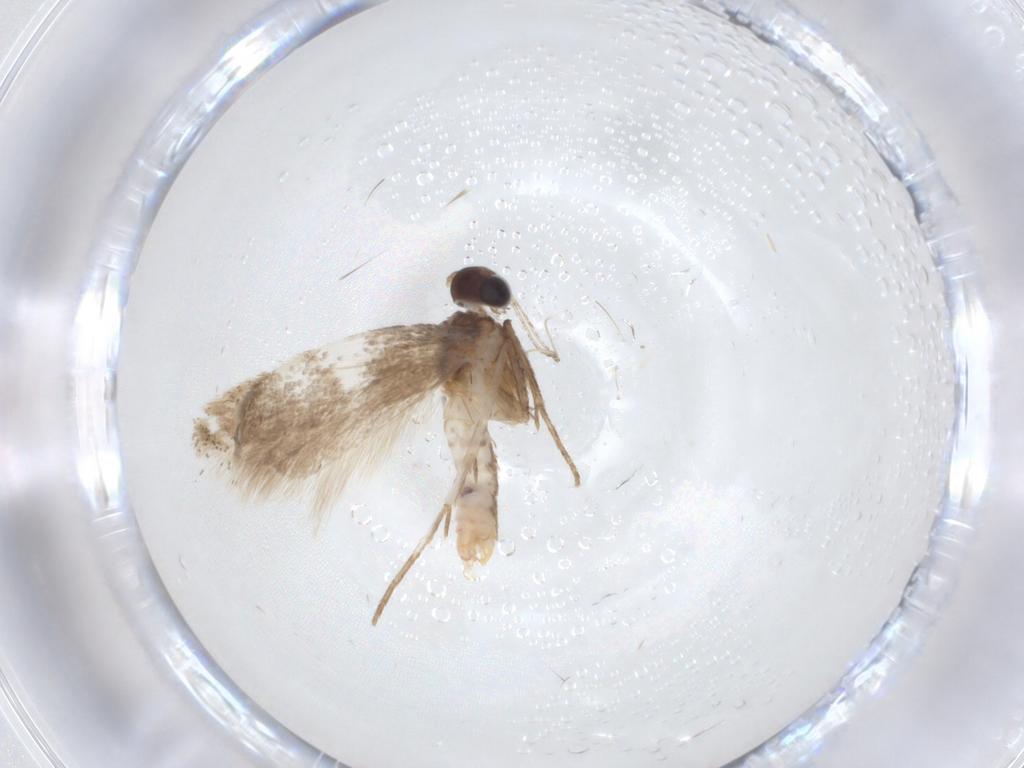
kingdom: Animalia
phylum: Arthropoda
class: Insecta
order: Lepidoptera
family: Cosmopterigidae
